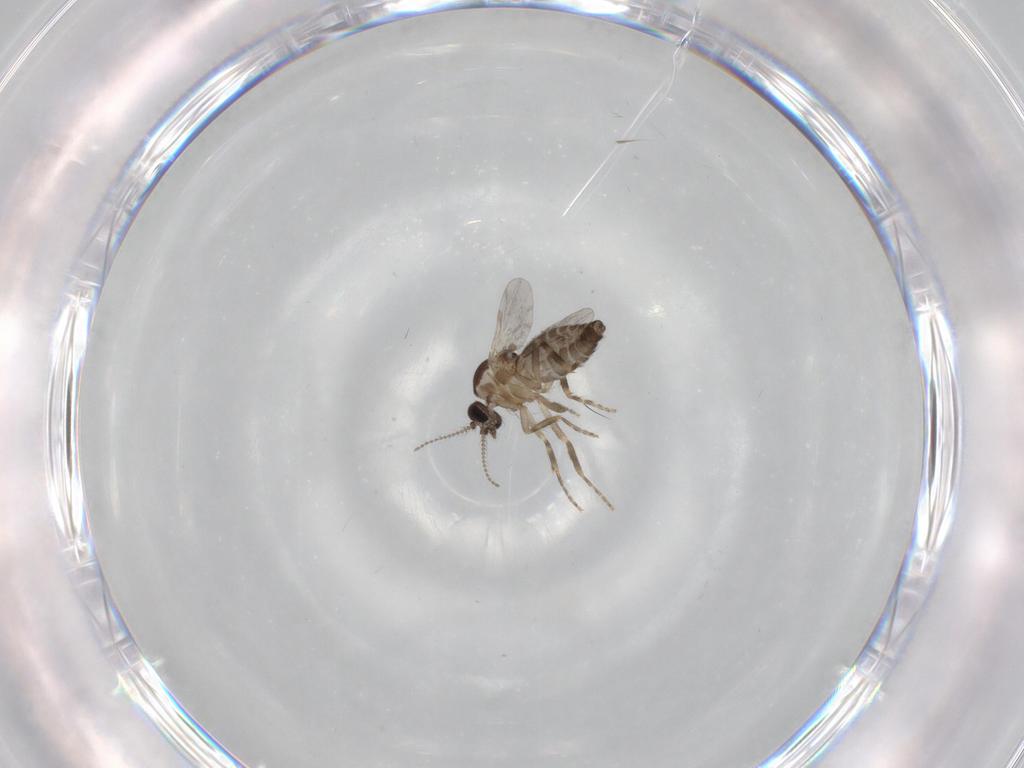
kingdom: Animalia
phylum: Arthropoda
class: Insecta
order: Diptera
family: Ceratopogonidae
